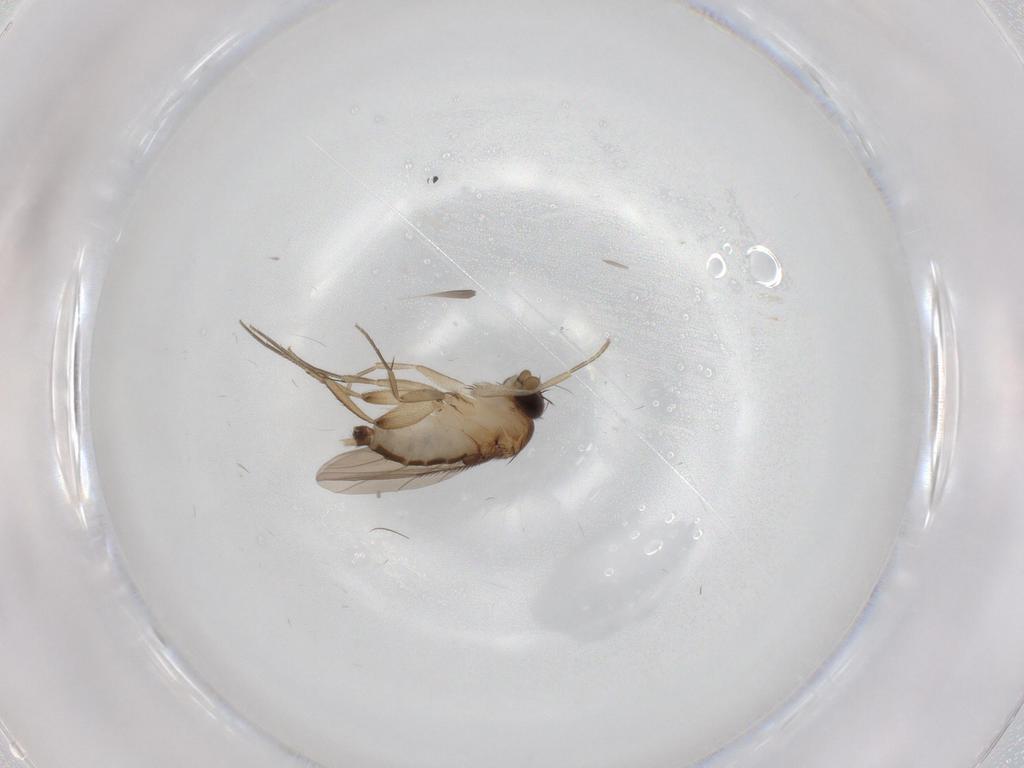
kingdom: Animalia
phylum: Arthropoda
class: Insecta
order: Diptera
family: Phoridae
